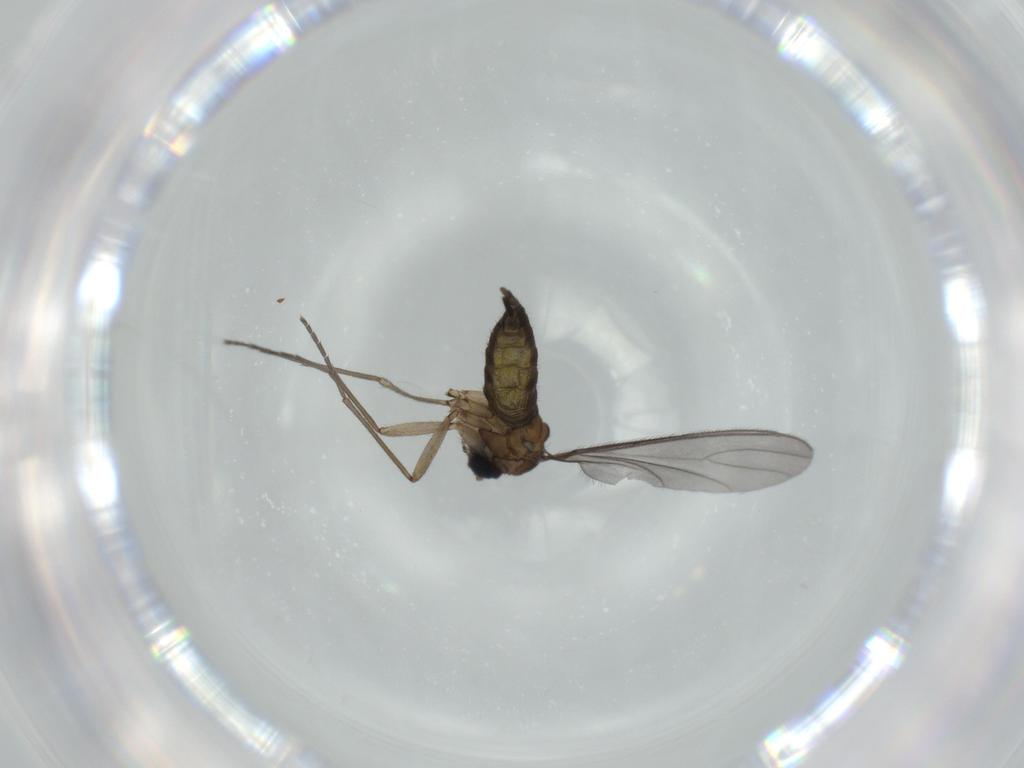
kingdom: Animalia
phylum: Arthropoda
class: Insecta
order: Diptera
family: Sciaridae
